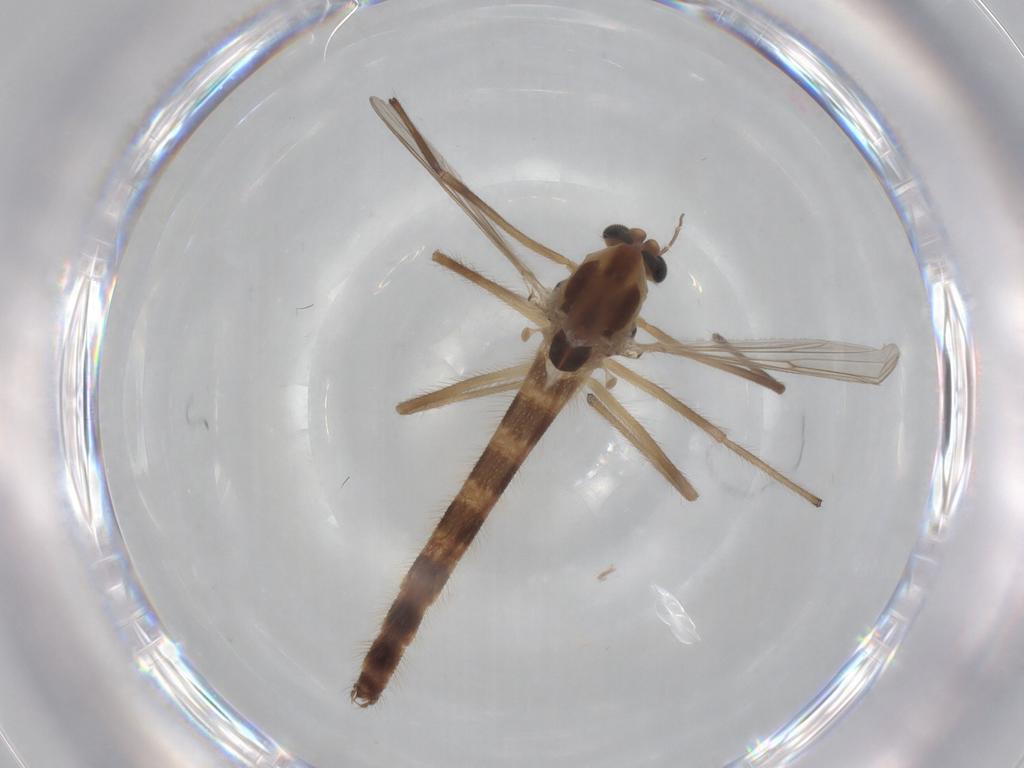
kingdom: Animalia
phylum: Arthropoda
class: Insecta
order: Diptera
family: Chironomidae
